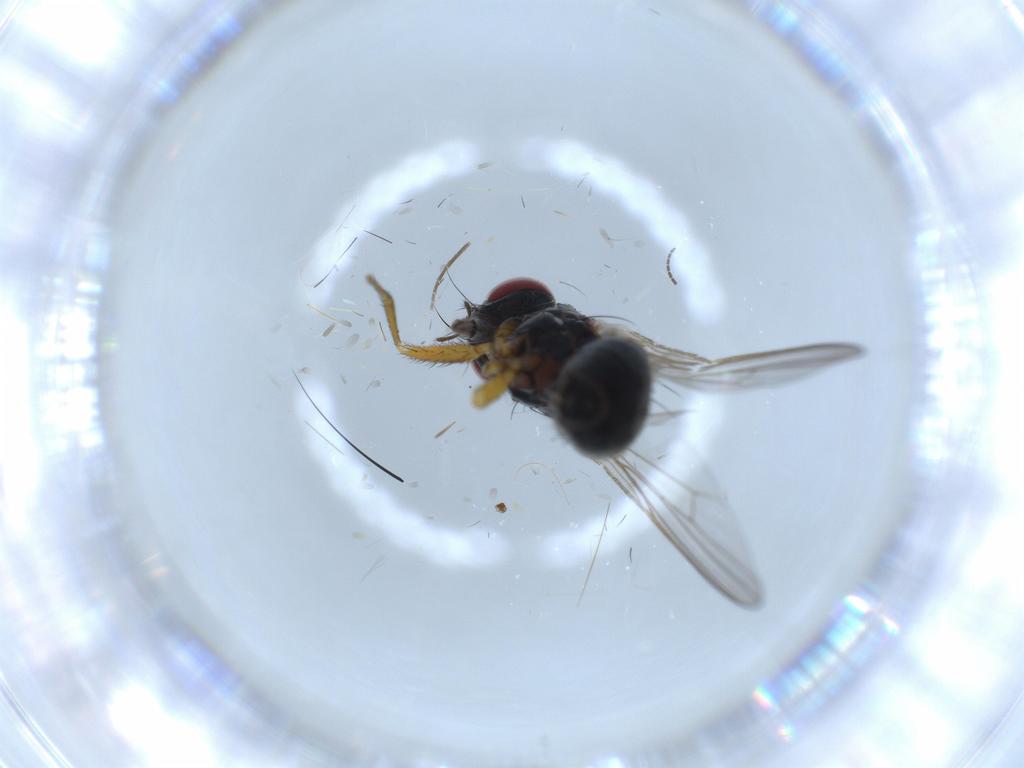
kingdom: Animalia
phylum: Arthropoda
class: Insecta
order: Diptera
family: Muscidae
